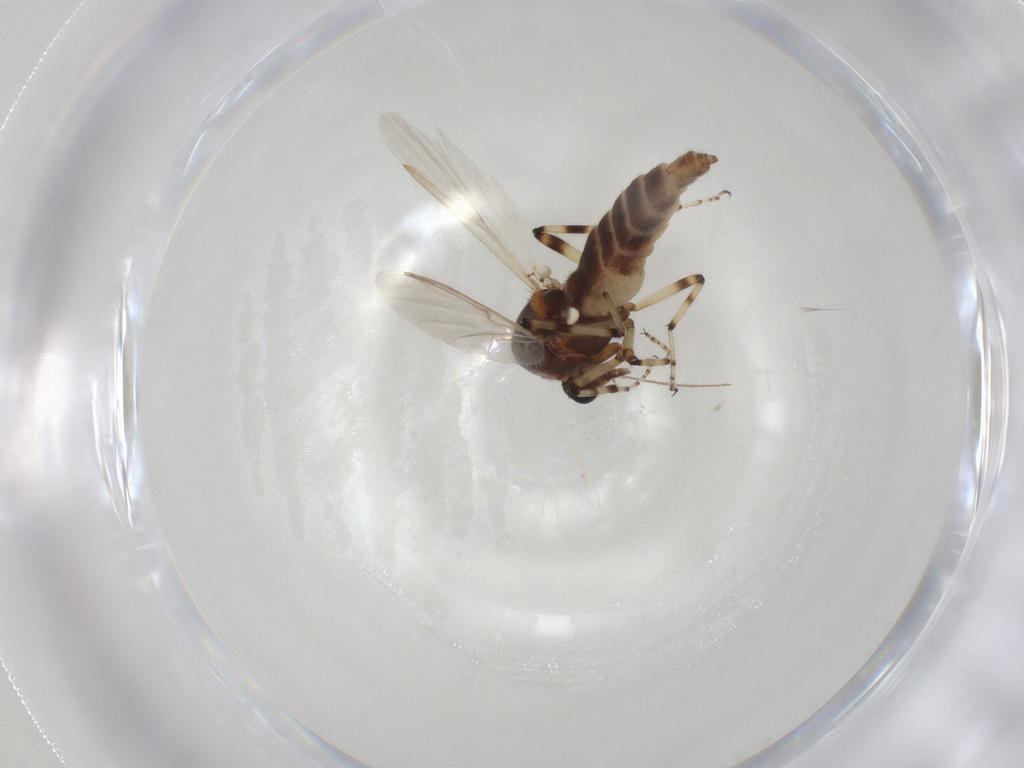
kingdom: Animalia
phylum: Arthropoda
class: Insecta
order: Diptera
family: Ceratopogonidae
